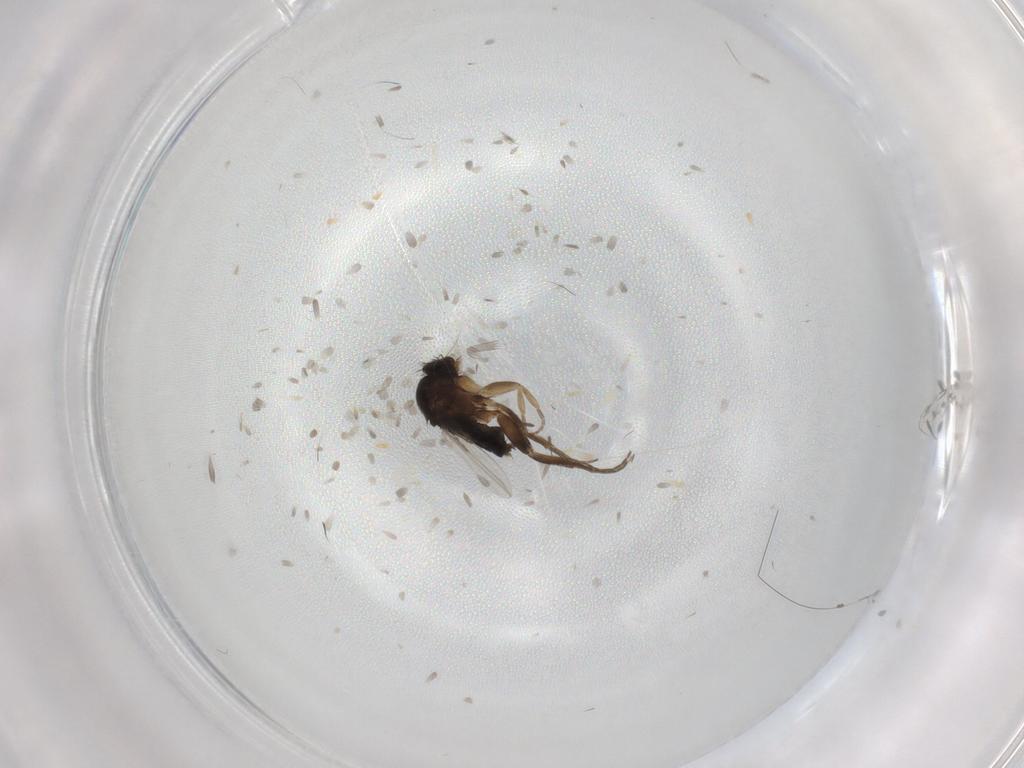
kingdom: Animalia
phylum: Arthropoda
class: Insecta
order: Diptera
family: Phoridae
